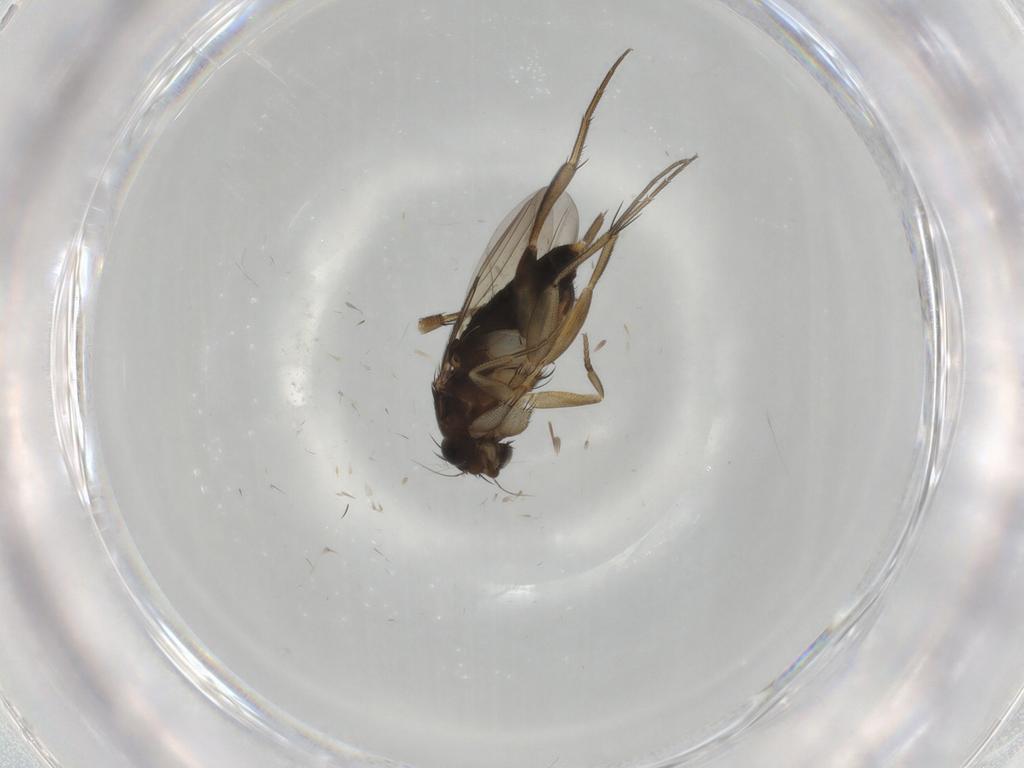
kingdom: Animalia
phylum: Arthropoda
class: Insecta
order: Diptera
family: Phoridae
